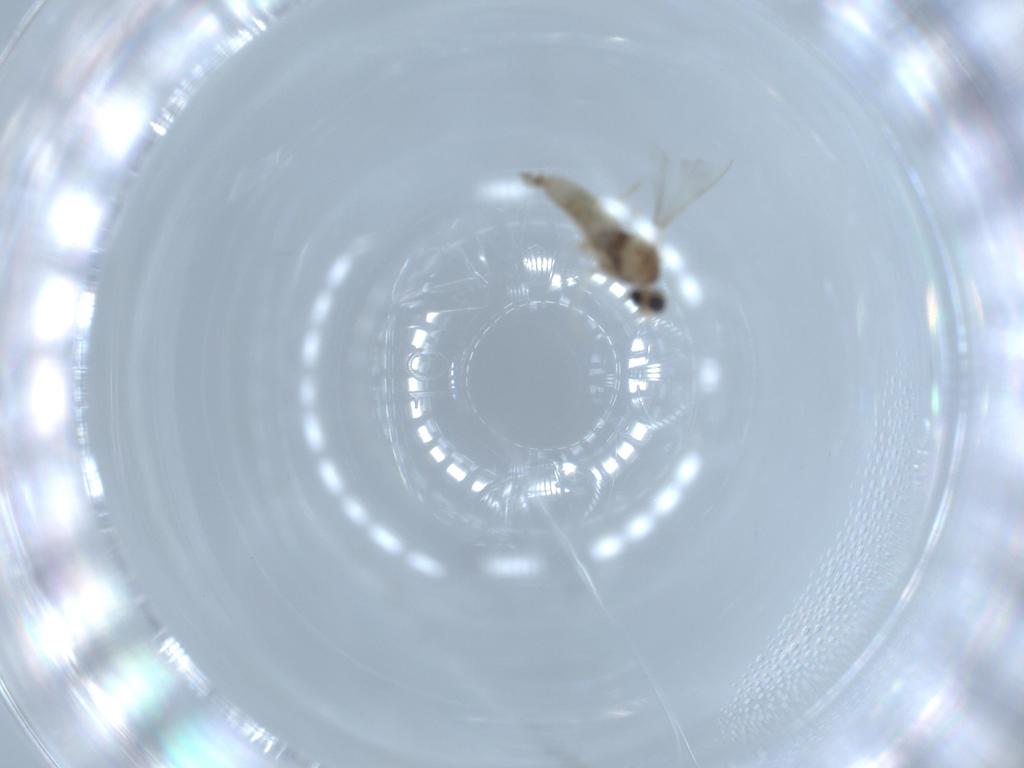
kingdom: Animalia
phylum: Arthropoda
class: Insecta
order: Diptera
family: Cecidomyiidae
